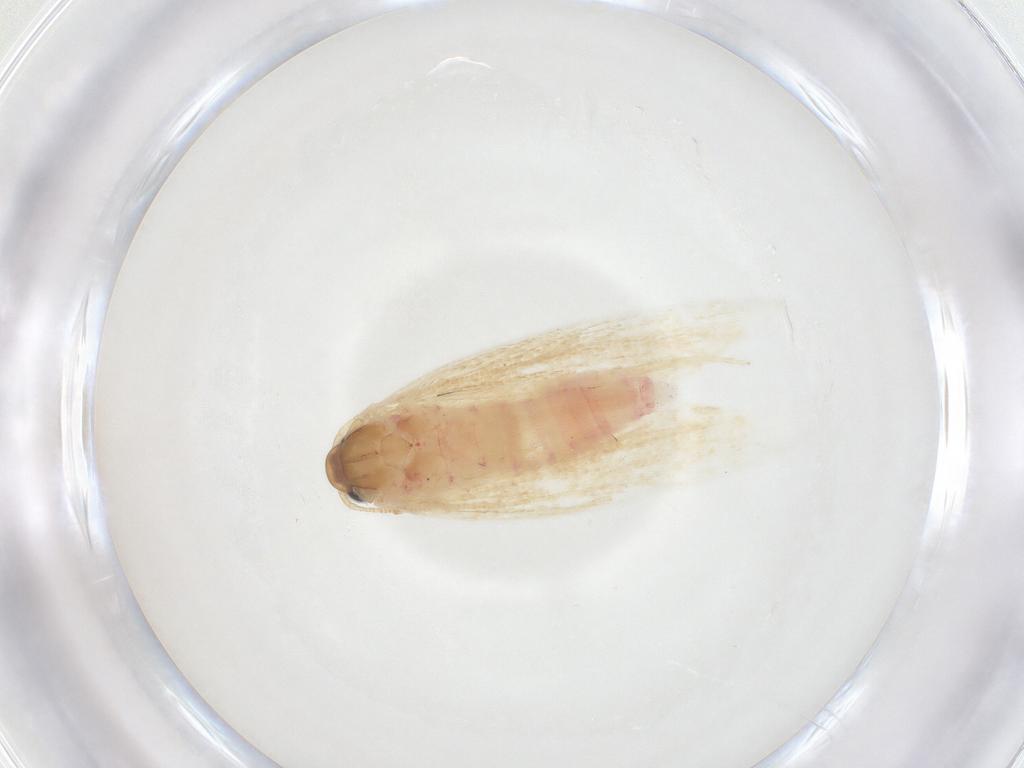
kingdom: Animalia
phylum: Arthropoda
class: Insecta
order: Lepidoptera
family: Autostichidae
